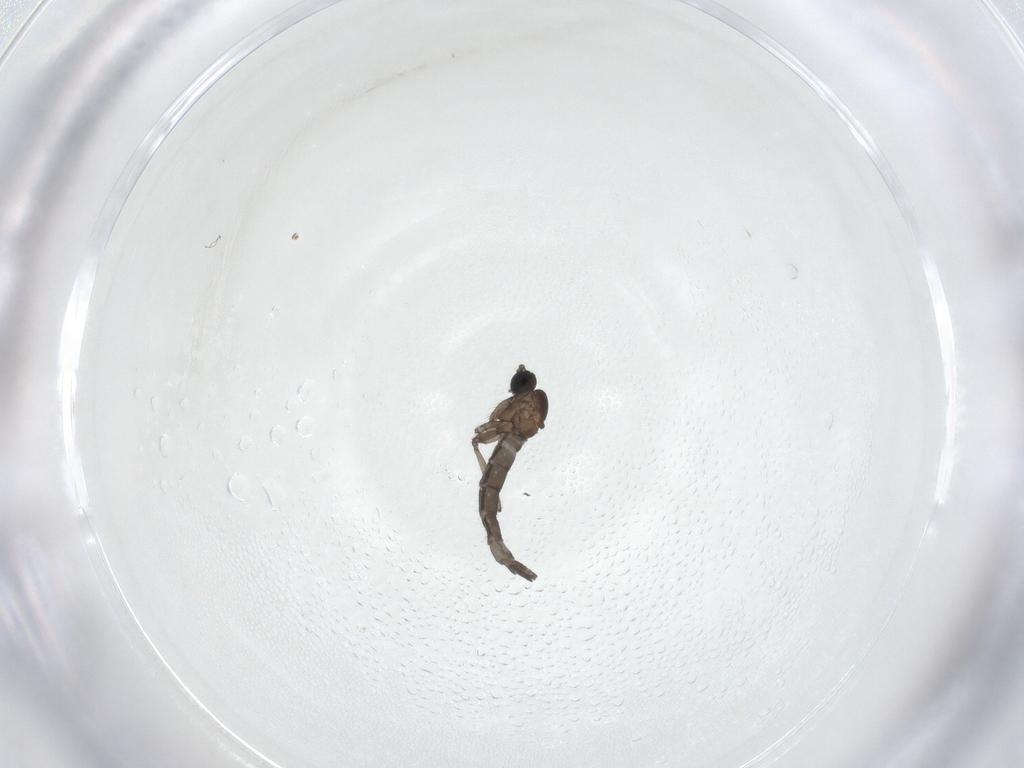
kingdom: Animalia
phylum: Arthropoda
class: Insecta
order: Diptera
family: Sciaridae
